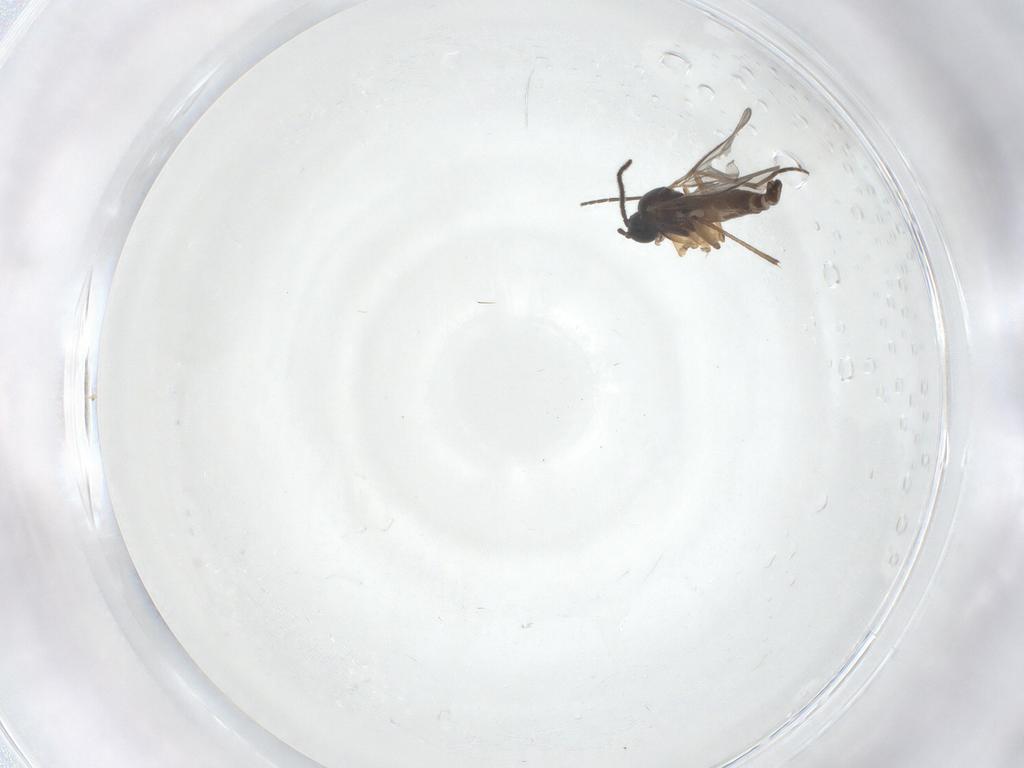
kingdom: Animalia
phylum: Arthropoda
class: Insecta
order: Diptera
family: Sciaridae
